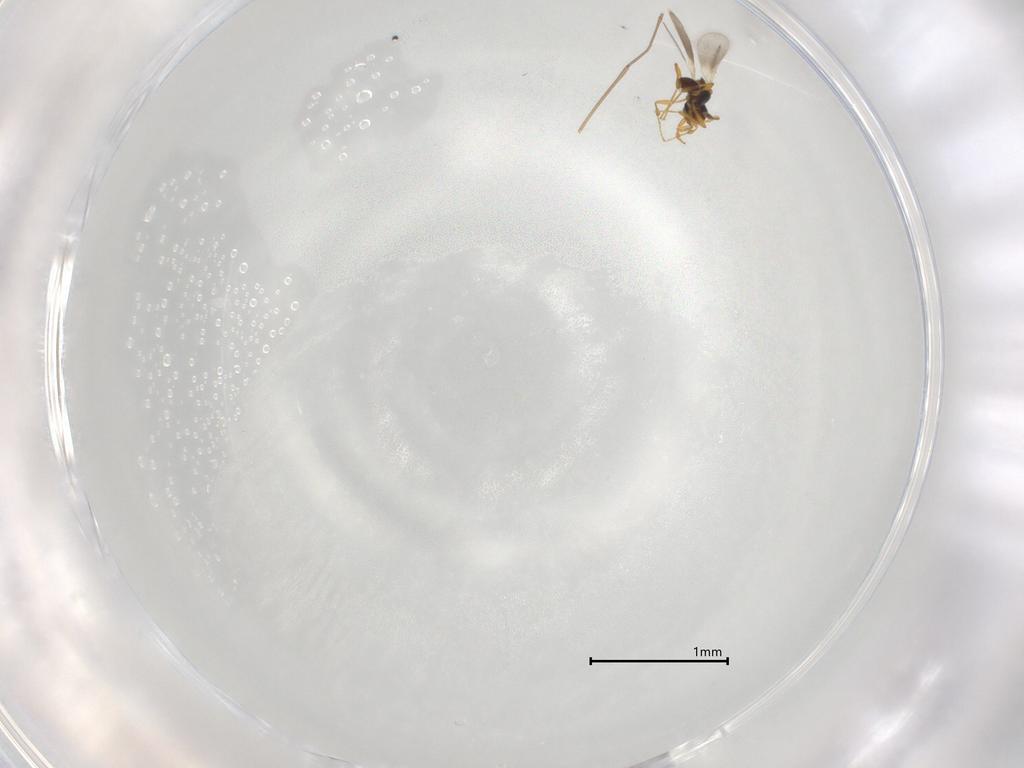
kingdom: Animalia
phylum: Arthropoda
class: Insecta
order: Hymenoptera
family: Platygastridae
